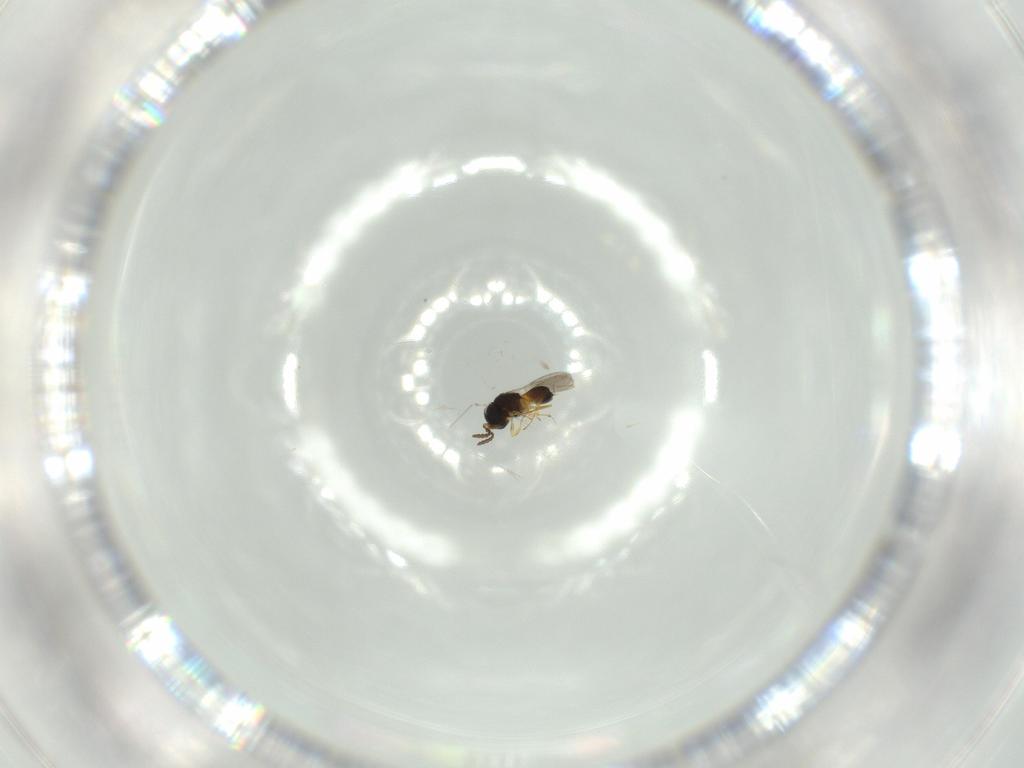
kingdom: Animalia
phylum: Arthropoda
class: Insecta
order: Hymenoptera
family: Scelionidae
